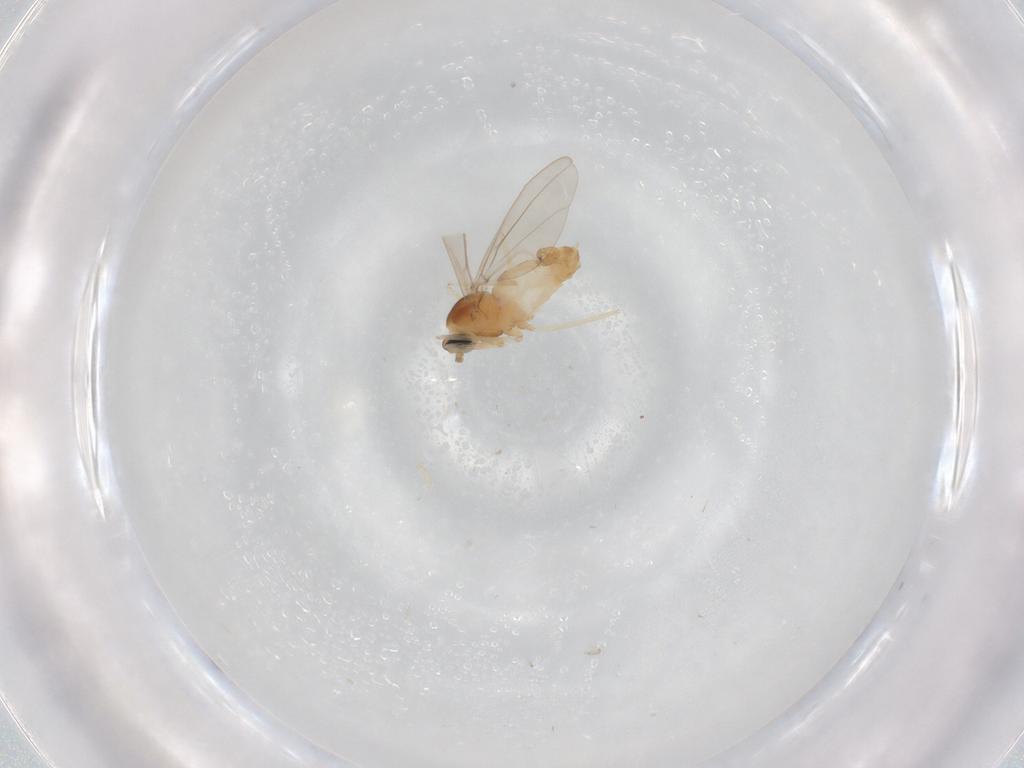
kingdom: Animalia
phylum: Arthropoda
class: Insecta
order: Diptera
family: Cecidomyiidae
